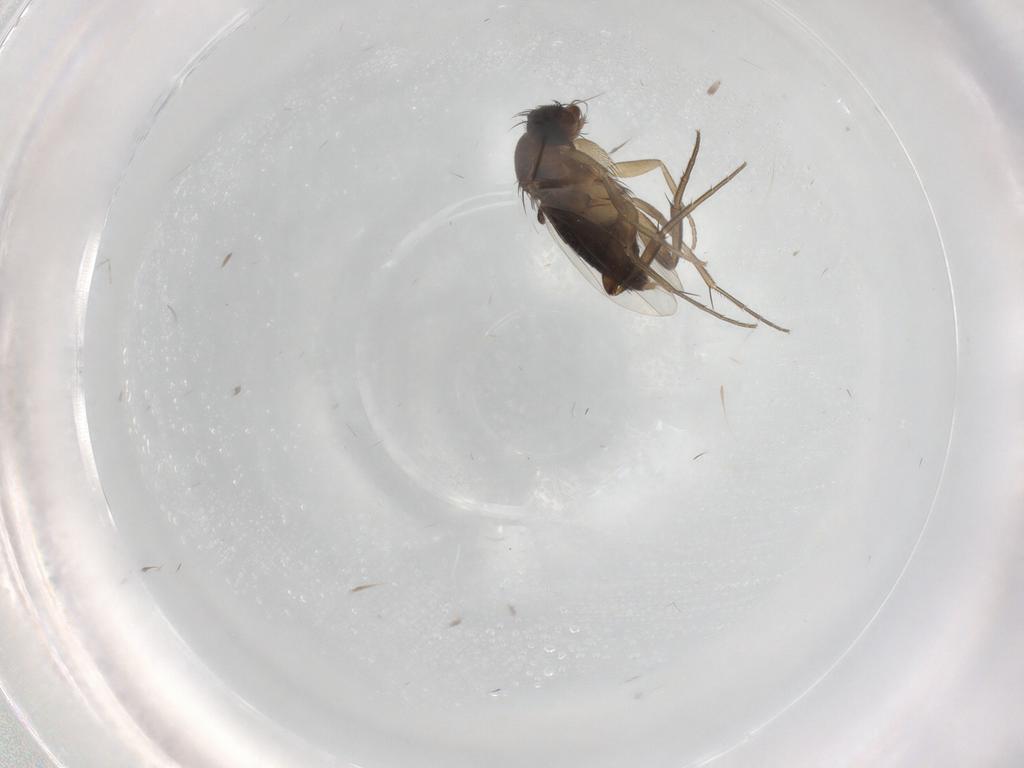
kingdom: Animalia
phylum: Arthropoda
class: Insecta
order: Diptera
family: Phoridae
